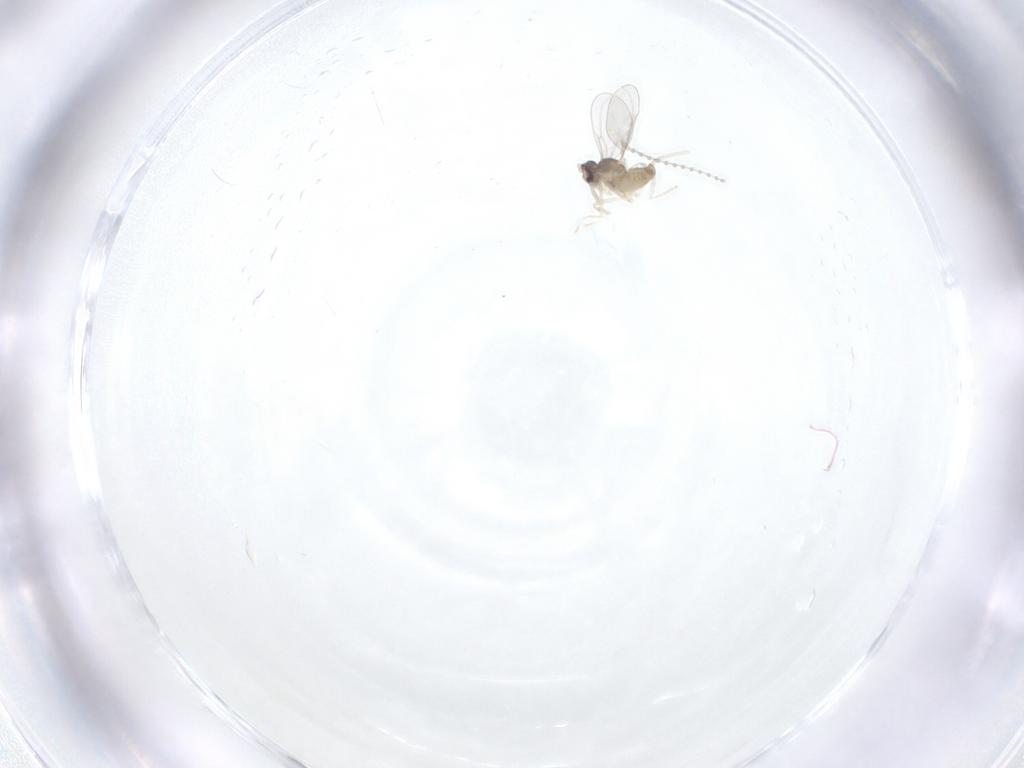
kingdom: Animalia
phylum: Arthropoda
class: Insecta
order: Diptera
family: Cecidomyiidae
